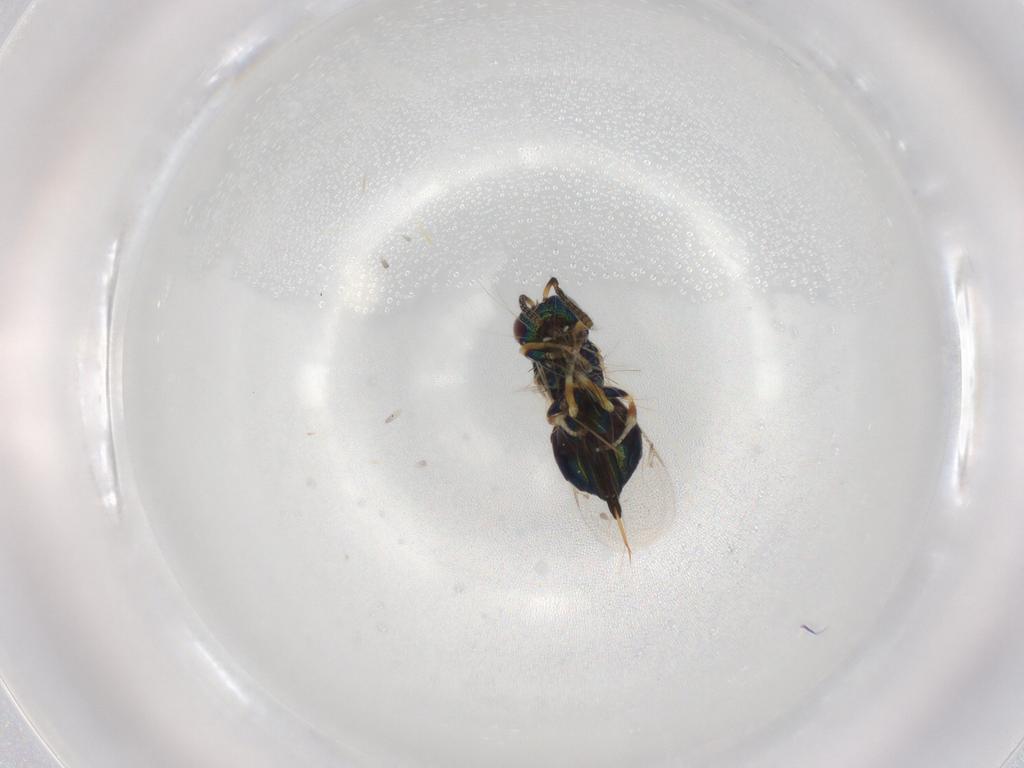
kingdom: Animalia
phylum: Arthropoda
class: Insecta
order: Hymenoptera
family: Pteromalidae
